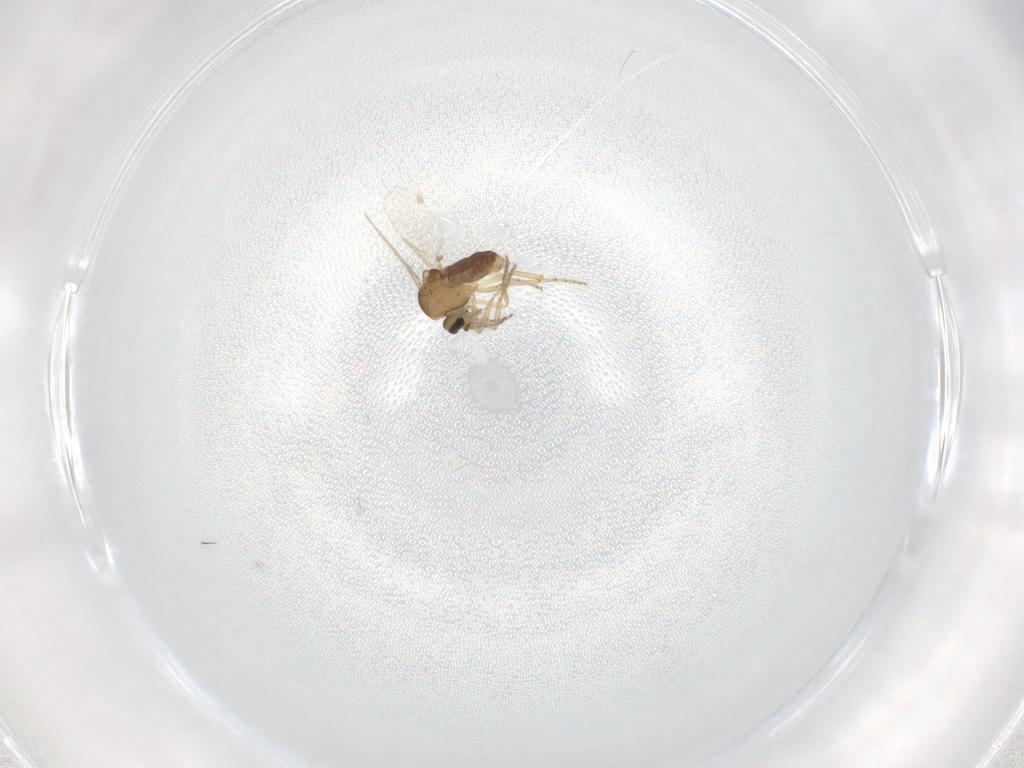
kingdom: Animalia
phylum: Arthropoda
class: Insecta
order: Diptera
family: Ceratopogonidae
